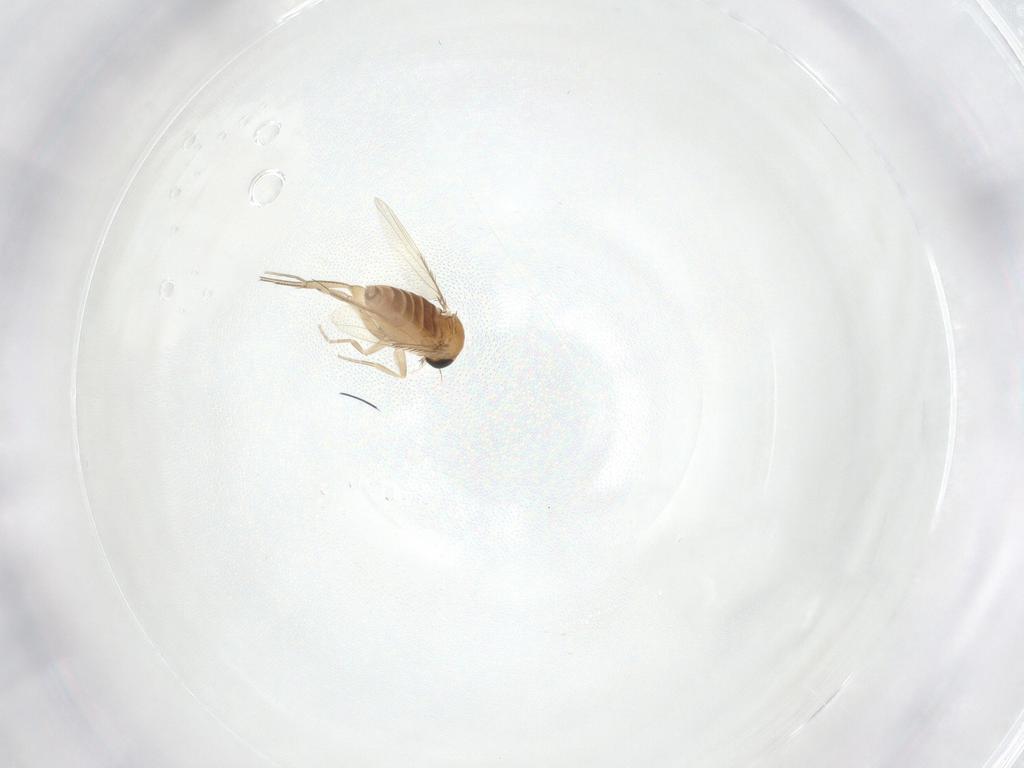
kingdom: Animalia
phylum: Arthropoda
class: Insecta
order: Diptera
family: Phoridae
